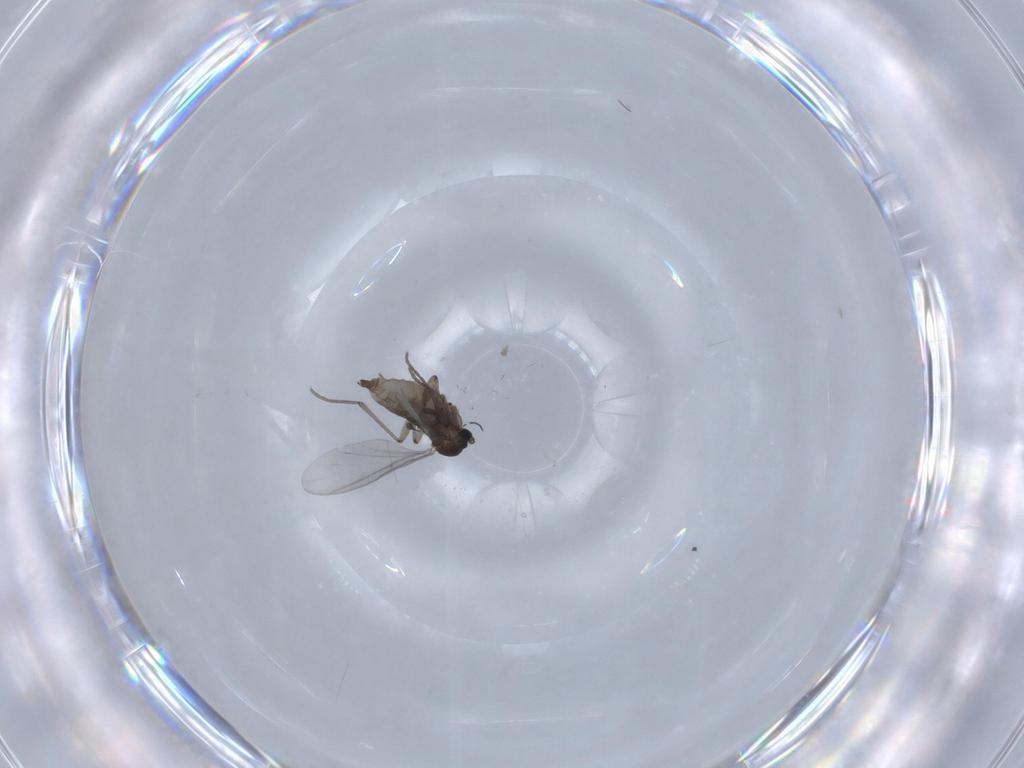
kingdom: Animalia
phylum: Arthropoda
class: Insecta
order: Diptera
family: Sciaridae
